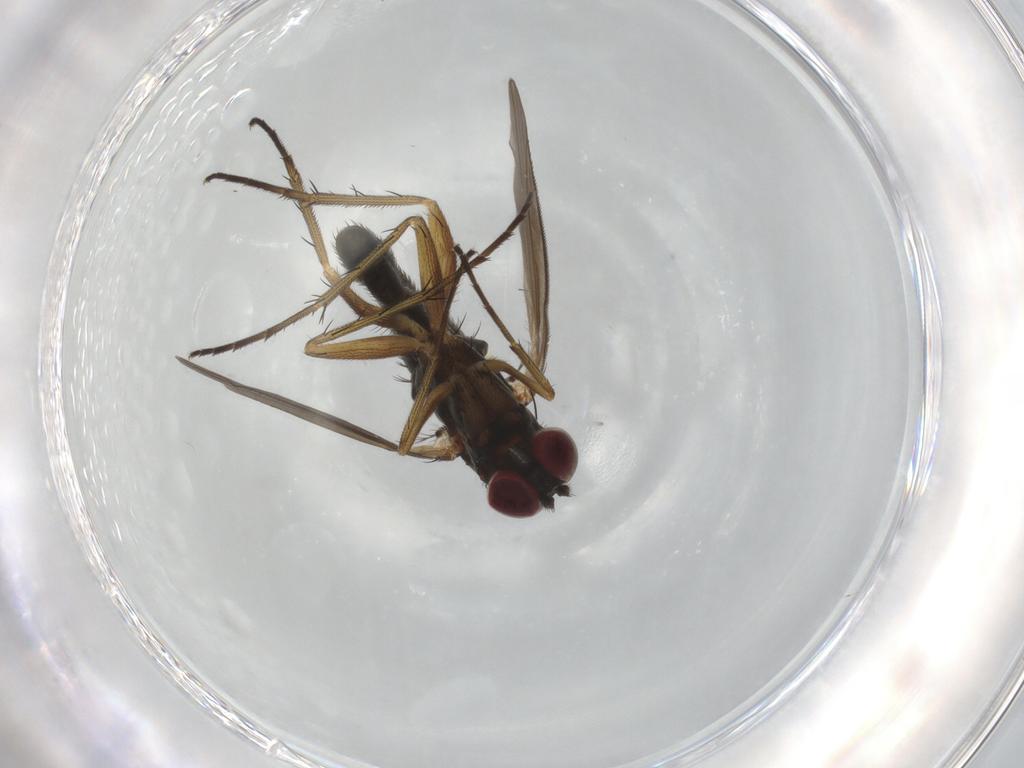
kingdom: Animalia
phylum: Arthropoda
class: Insecta
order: Diptera
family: Dolichopodidae
